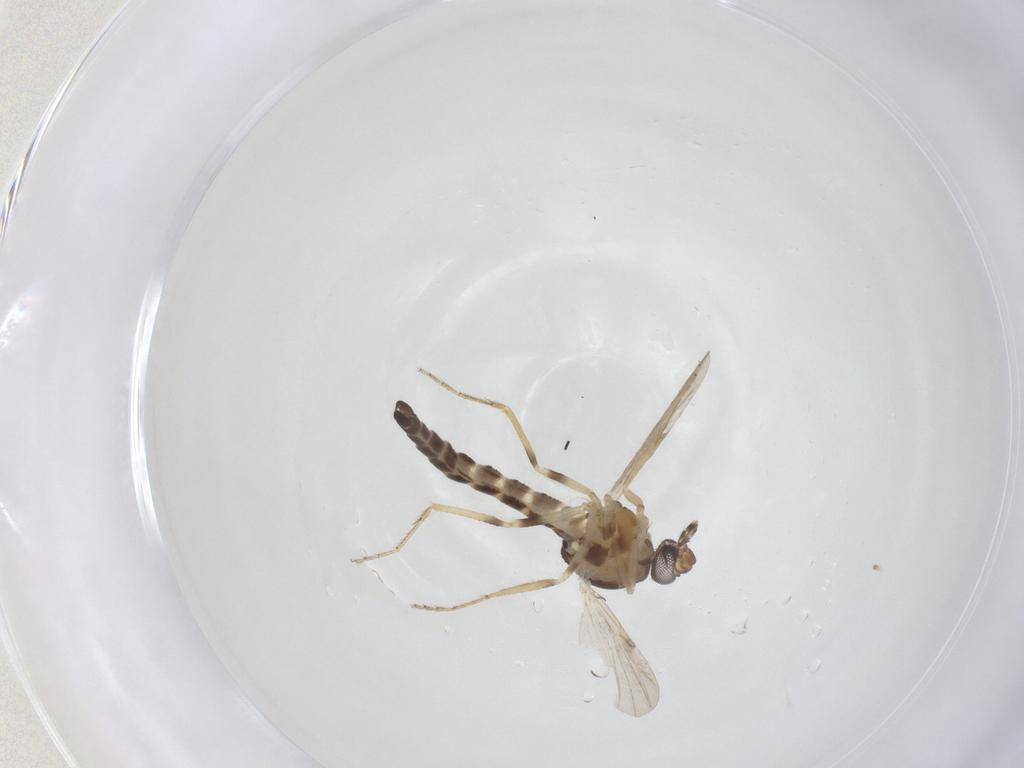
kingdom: Animalia
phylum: Arthropoda
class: Insecta
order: Diptera
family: Ceratopogonidae
